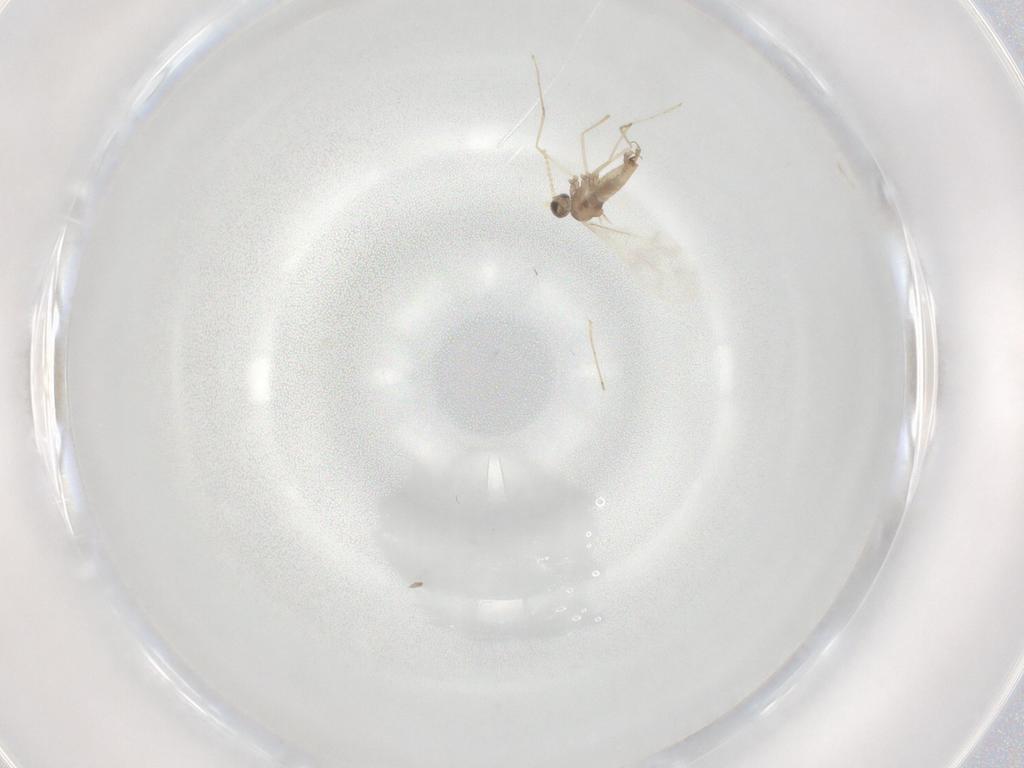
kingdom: Animalia
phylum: Arthropoda
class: Insecta
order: Diptera
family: Cecidomyiidae
